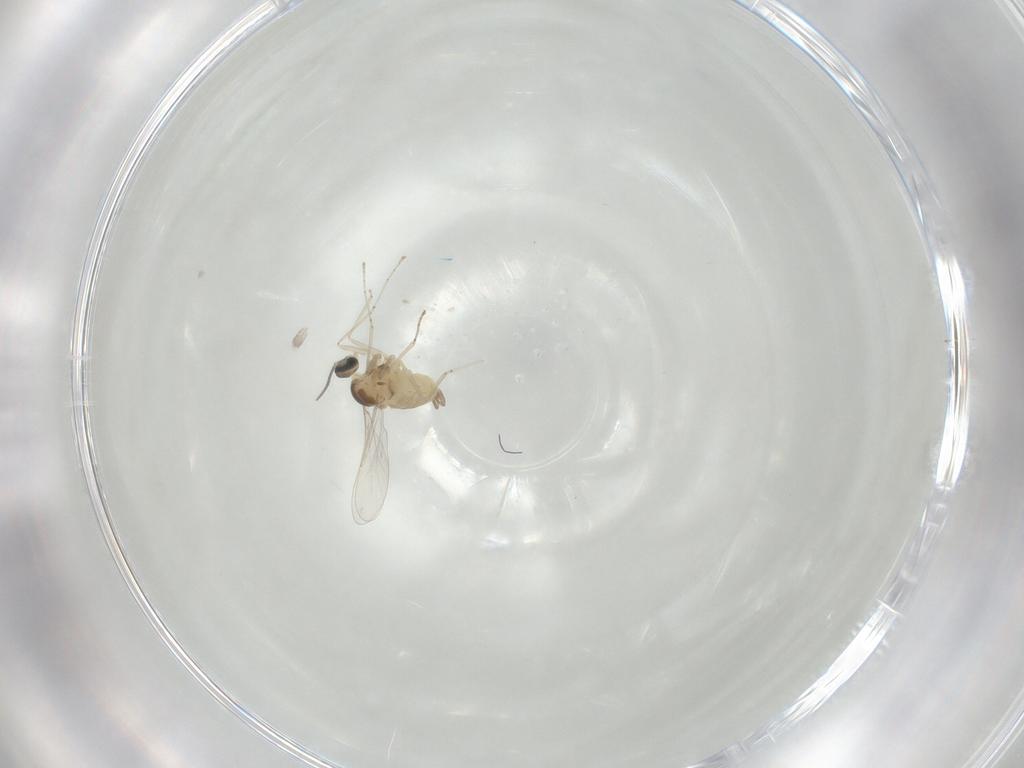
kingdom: Animalia
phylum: Arthropoda
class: Insecta
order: Diptera
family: Cecidomyiidae
